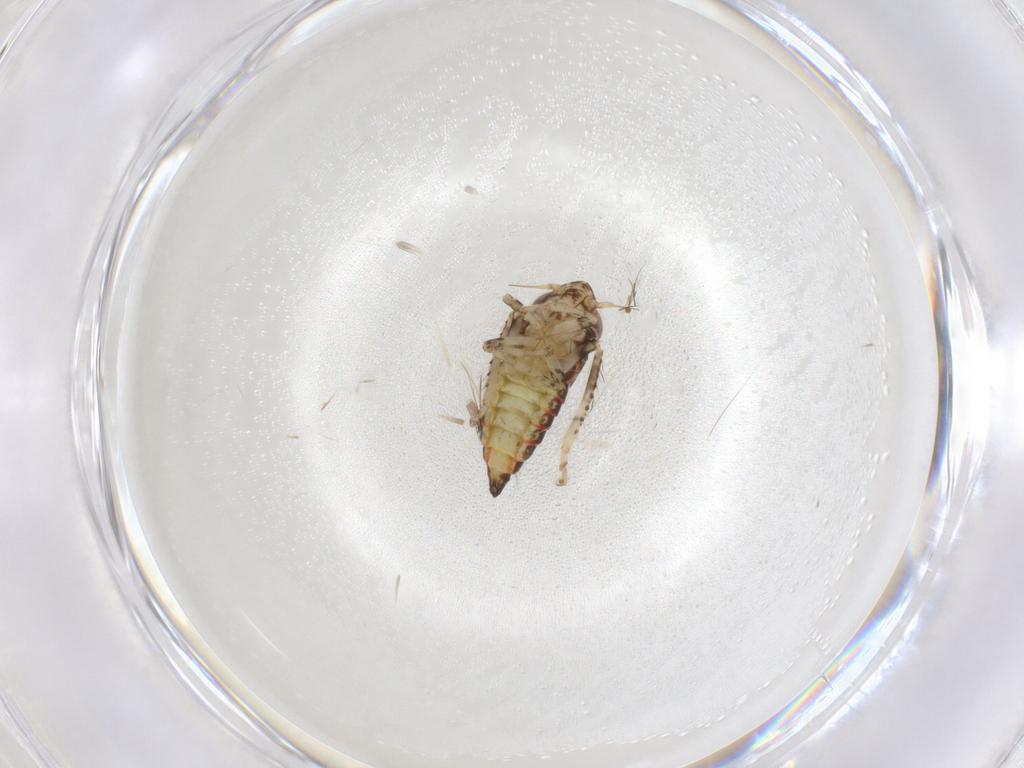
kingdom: Animalia
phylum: Arthropoda
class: Insecta
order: Hemiptera
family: Cicadellidae
